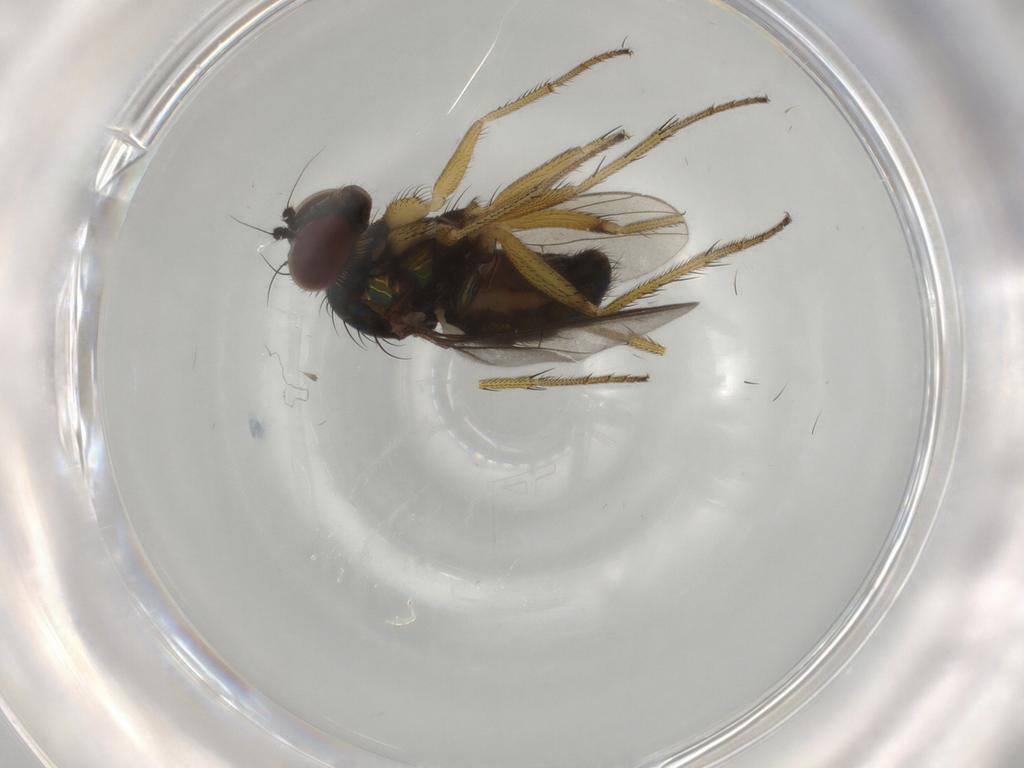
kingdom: Animalia
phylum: Arthropoda
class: Insecta
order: Diptera
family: Dolichopodidae
